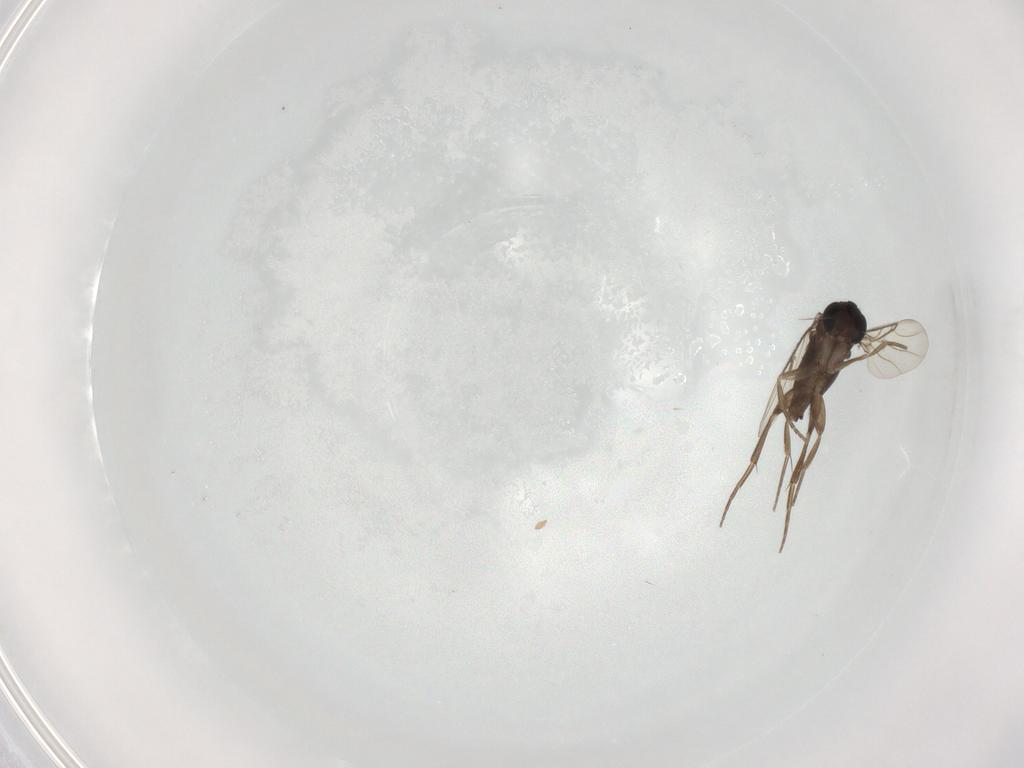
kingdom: Animalia
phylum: Arthropoda
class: Insecta
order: Diptera
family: Phoridae
